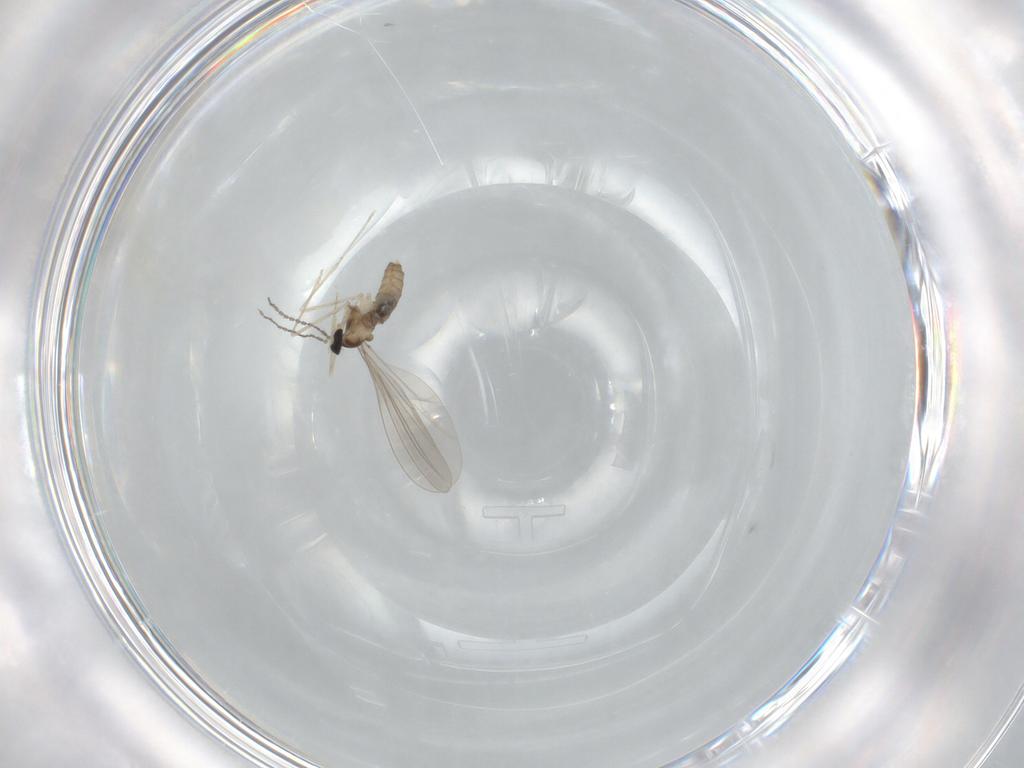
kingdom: Animalia
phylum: Arthropoda
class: Insecta
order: Diptera
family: Cecidomyiidae
